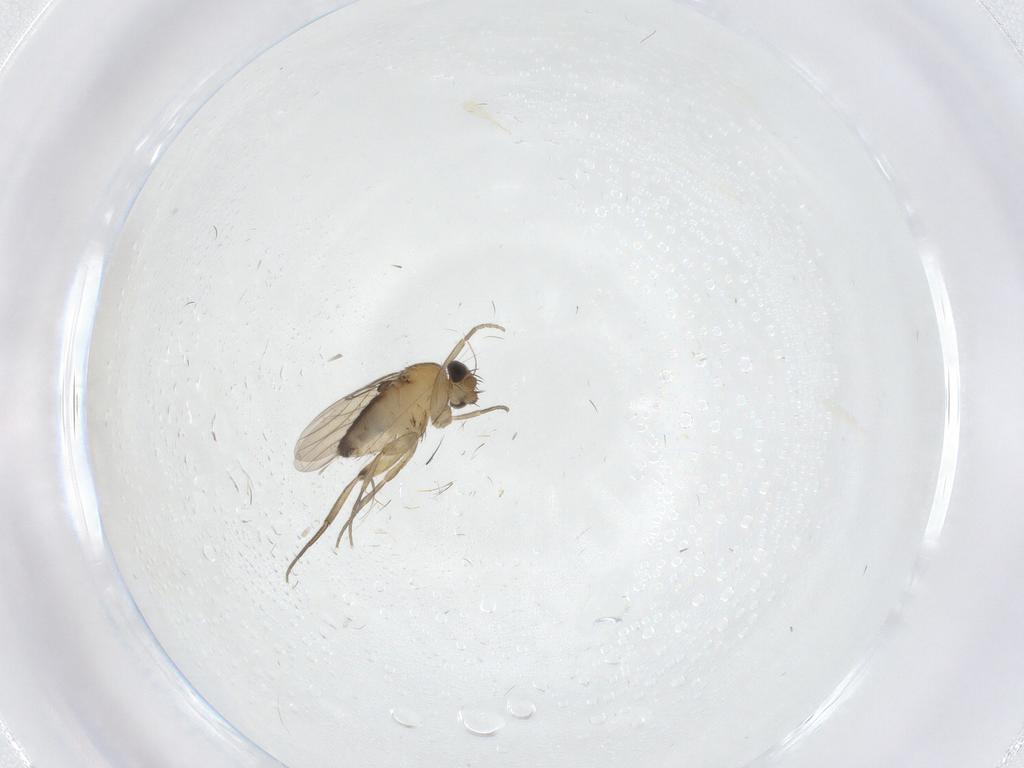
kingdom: Animalia
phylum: Arthropoda
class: Insecta
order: Diptera
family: Phoridae
